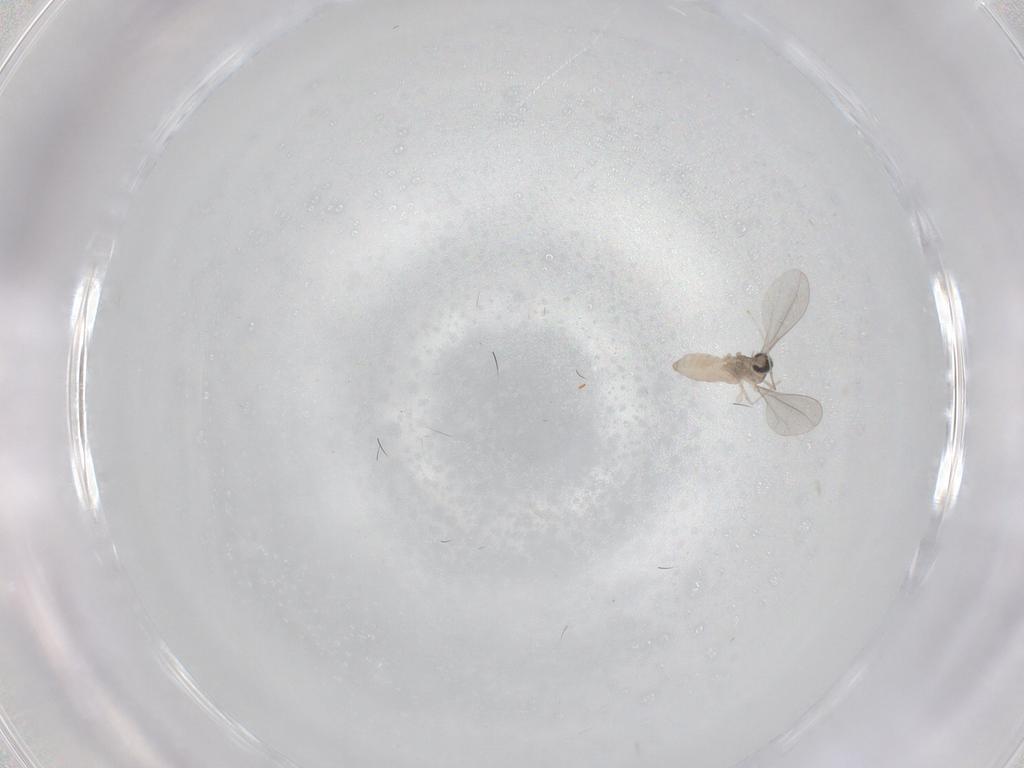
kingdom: Animalia
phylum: Arthropoda
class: Insecta
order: Diptera
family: Cecidomyiidae
